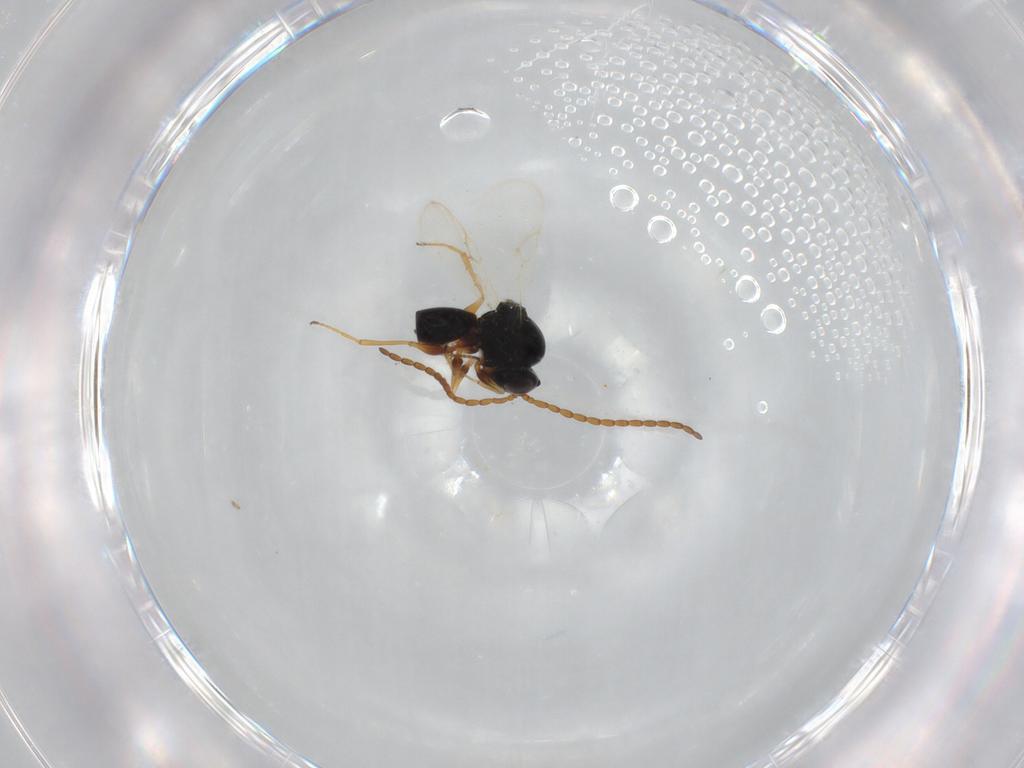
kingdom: Animalia
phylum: Arthropoda
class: Insecta
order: Hymenoptera
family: Figitidae
